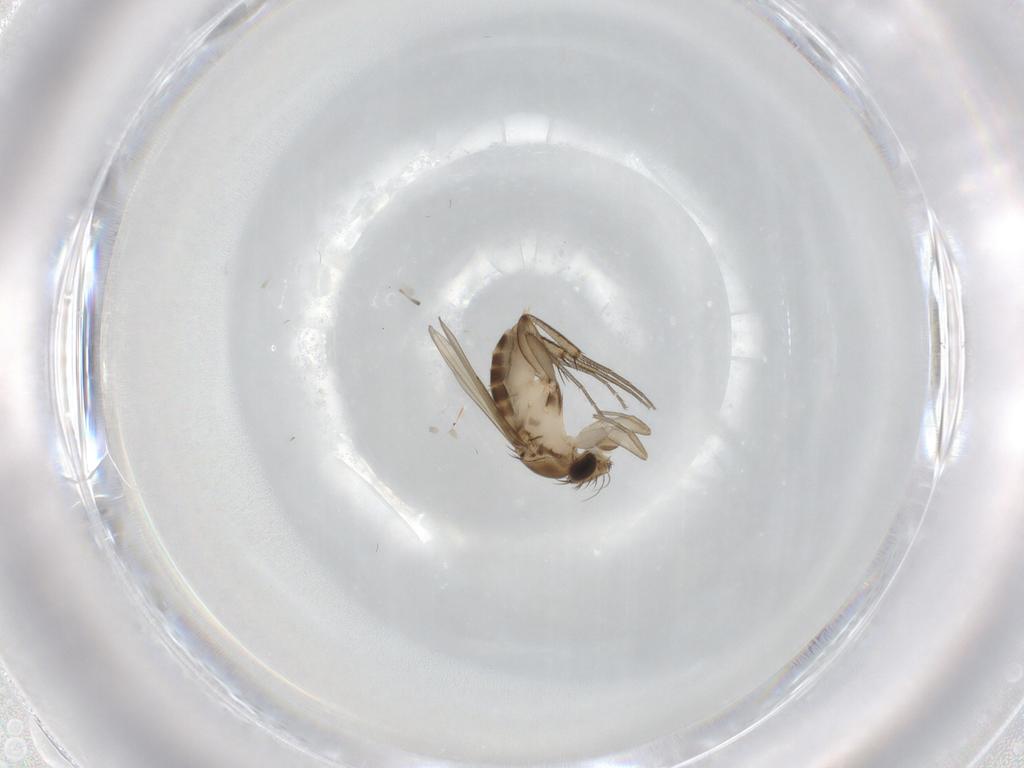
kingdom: Animalia
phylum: Arthropoda
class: Insecta
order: Diptera
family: Phoridae
